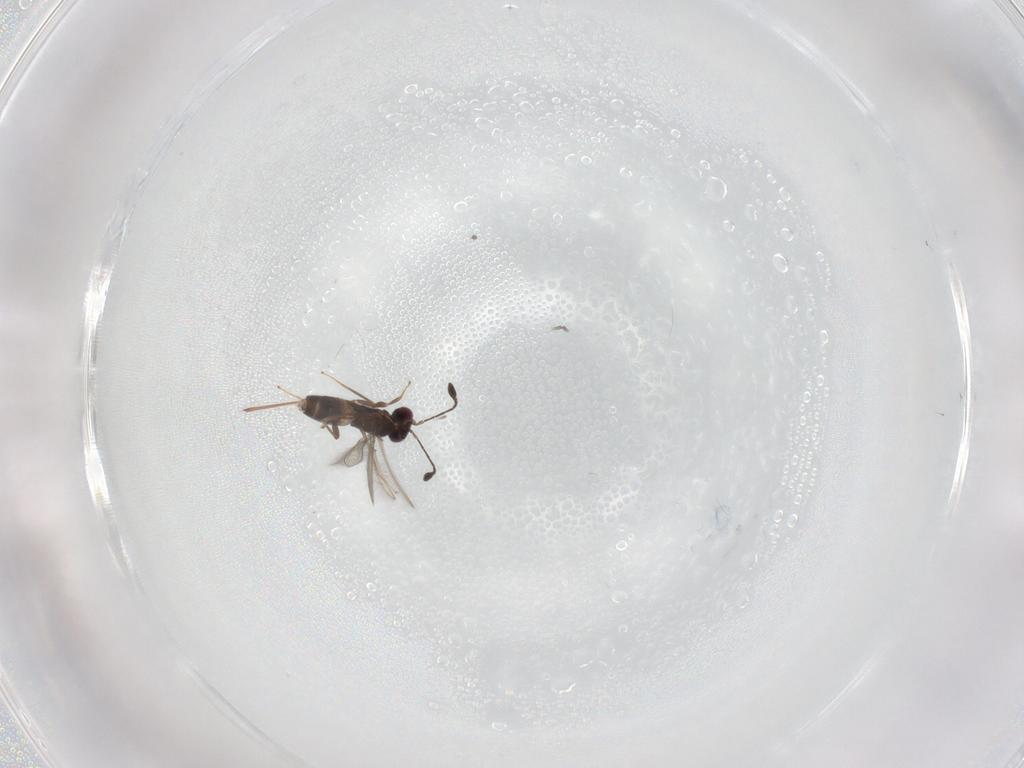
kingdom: Animalia
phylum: Arthropoda
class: Insecta
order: Hymenoptera
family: Mymaridae
